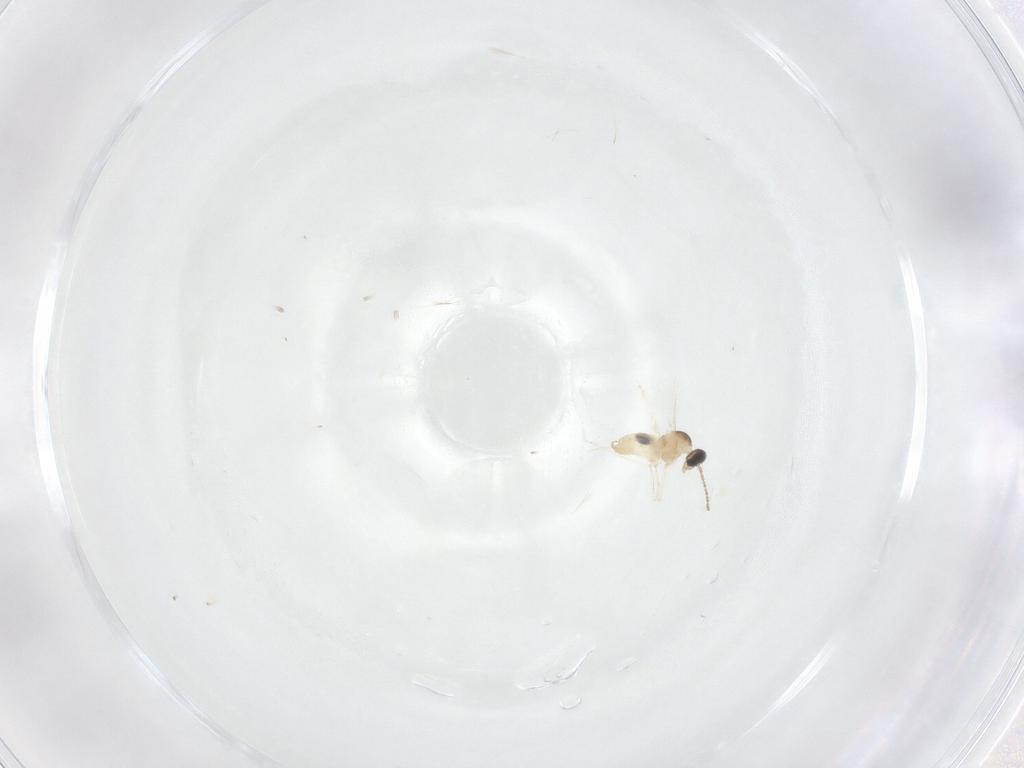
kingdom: Animalia
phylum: Arthropoda
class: Insecta
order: Diptera
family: Cecidomyiidae
